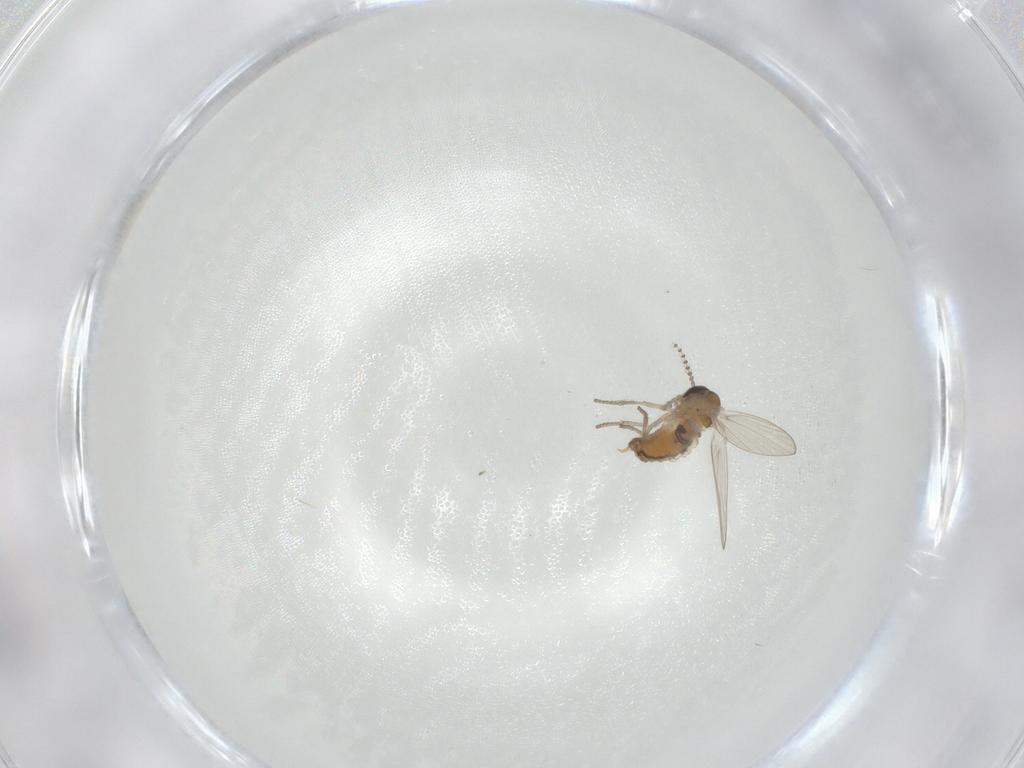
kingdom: Animalia
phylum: Arthropoda
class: Insecta
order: Diptera
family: Psychodidae
